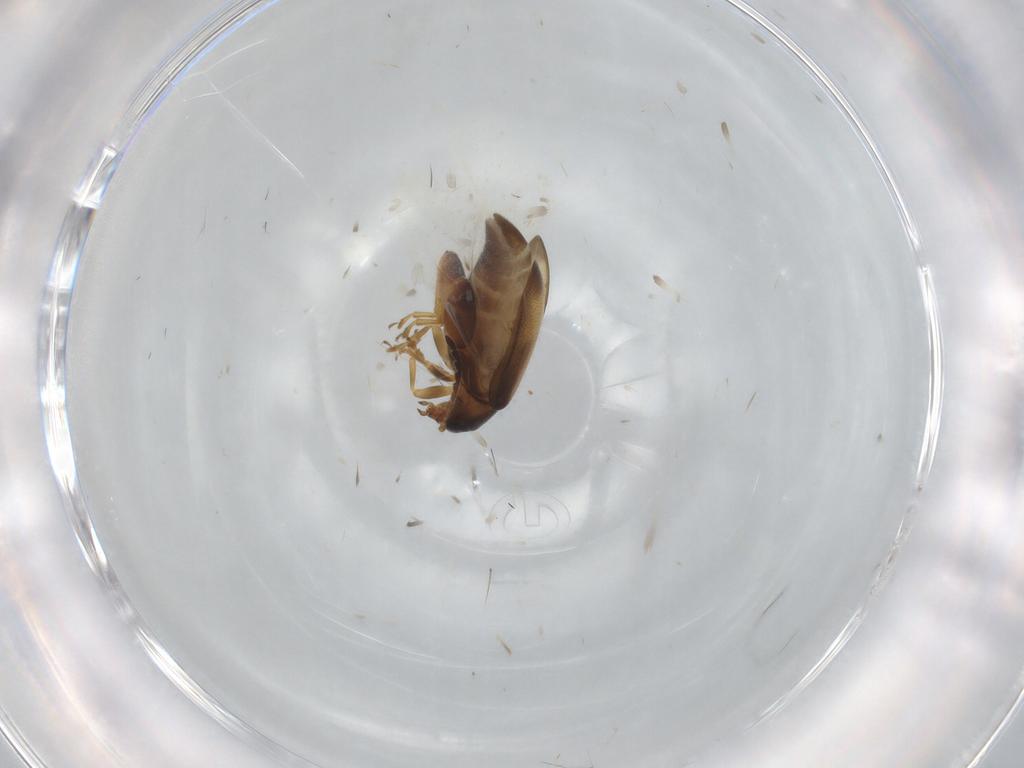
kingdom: Animalia
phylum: Arthropoda
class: Insecta
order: Coleoptera
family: Chrysomelidae
